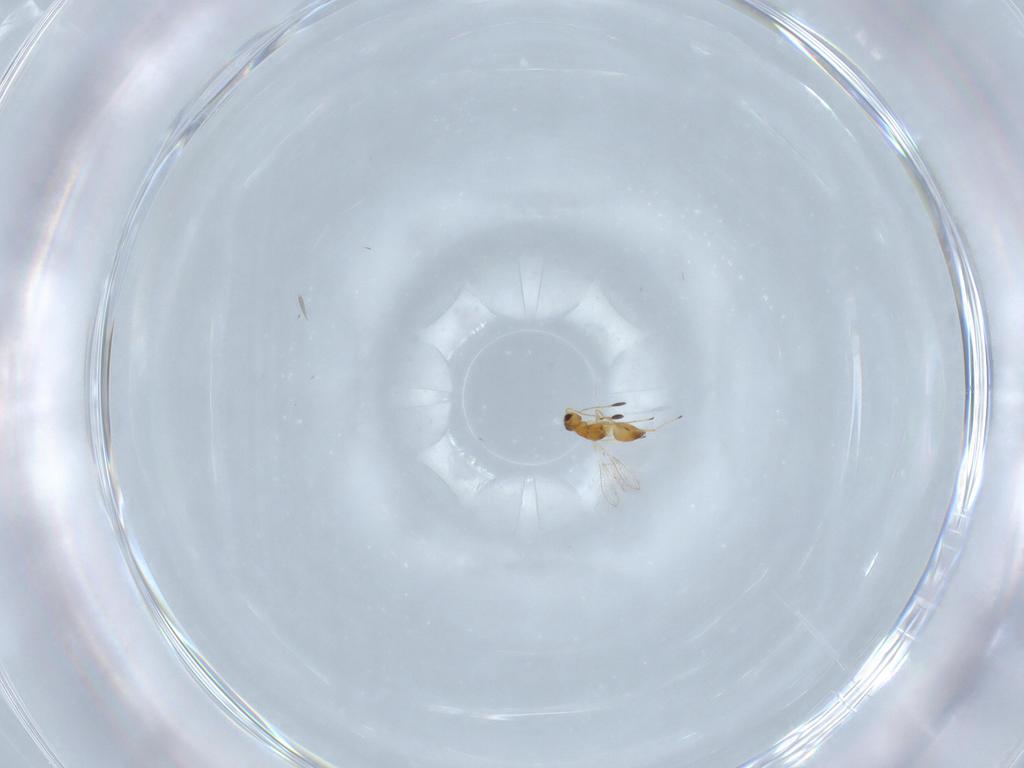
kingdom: Animalia
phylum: Arthropoda
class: Insecta
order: Hymenoptera
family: Mymaridae
